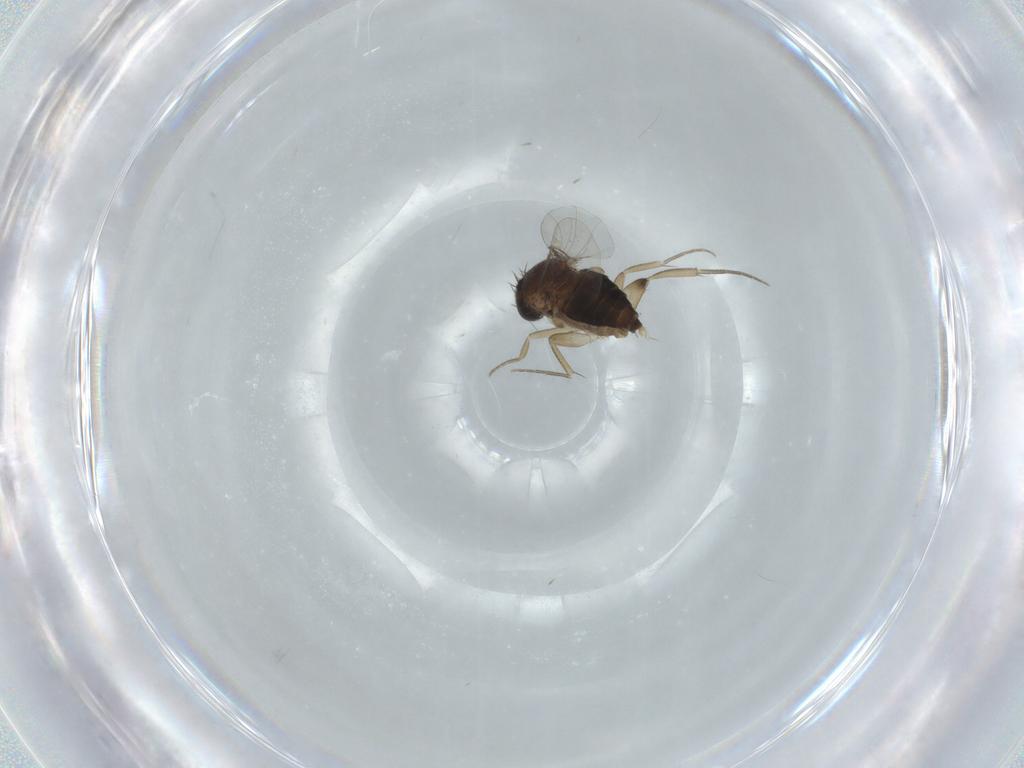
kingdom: Animalia
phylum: Arthropoda
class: Insecta
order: Diptera
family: Phoridae
